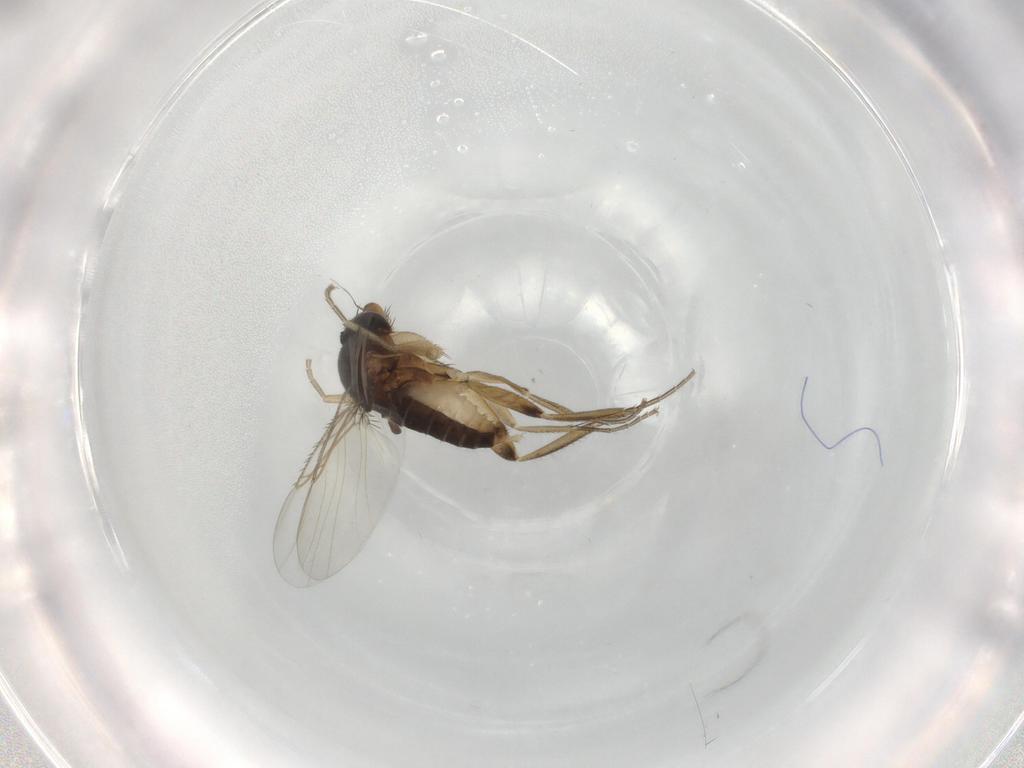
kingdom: Animalia
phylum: Arthropoda
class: Insecta
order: Diptera
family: Phoridae
